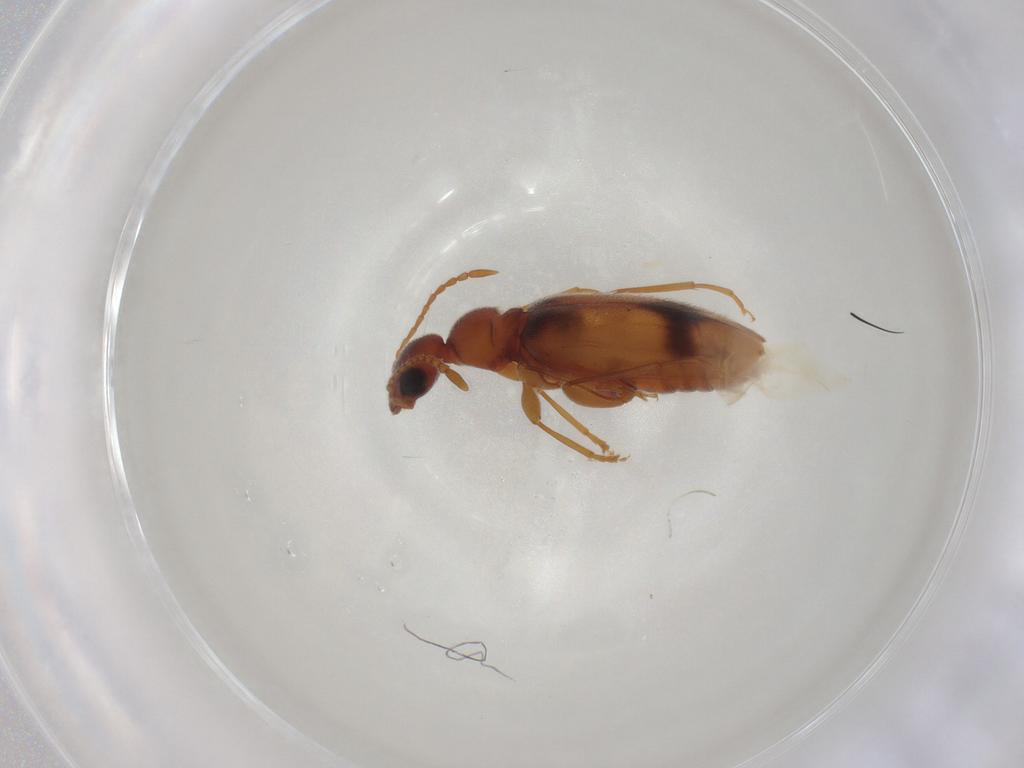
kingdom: Animalia
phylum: Arthropoda
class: Insecta
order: Coleoptera
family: Anthicidae
